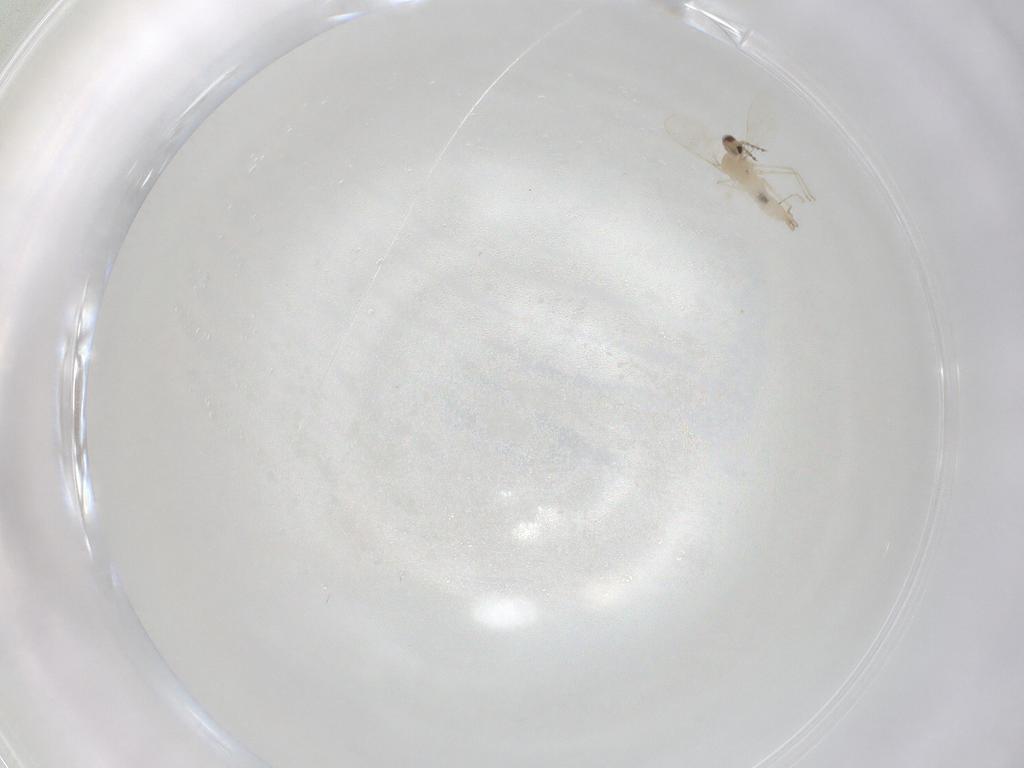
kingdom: Animalia
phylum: Arthropoda
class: Insecta
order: Diptera
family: Cecidomyiidae
